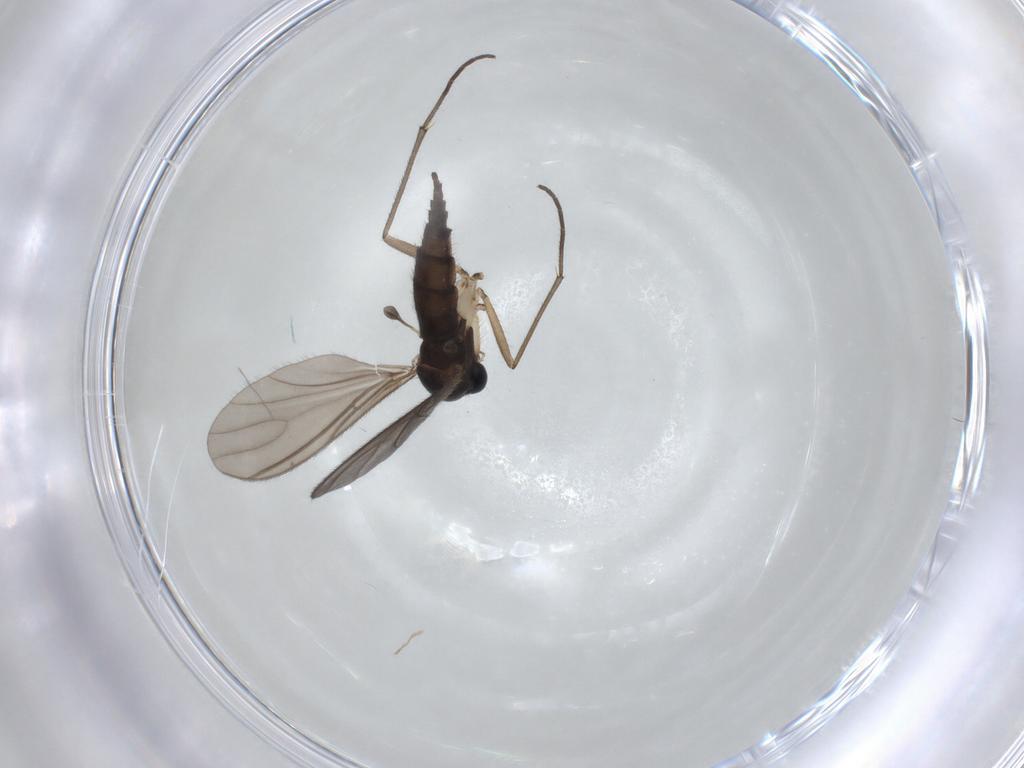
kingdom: Animalia
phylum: Arthropoda
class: Insecta
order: Diptera
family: Sciaridae
